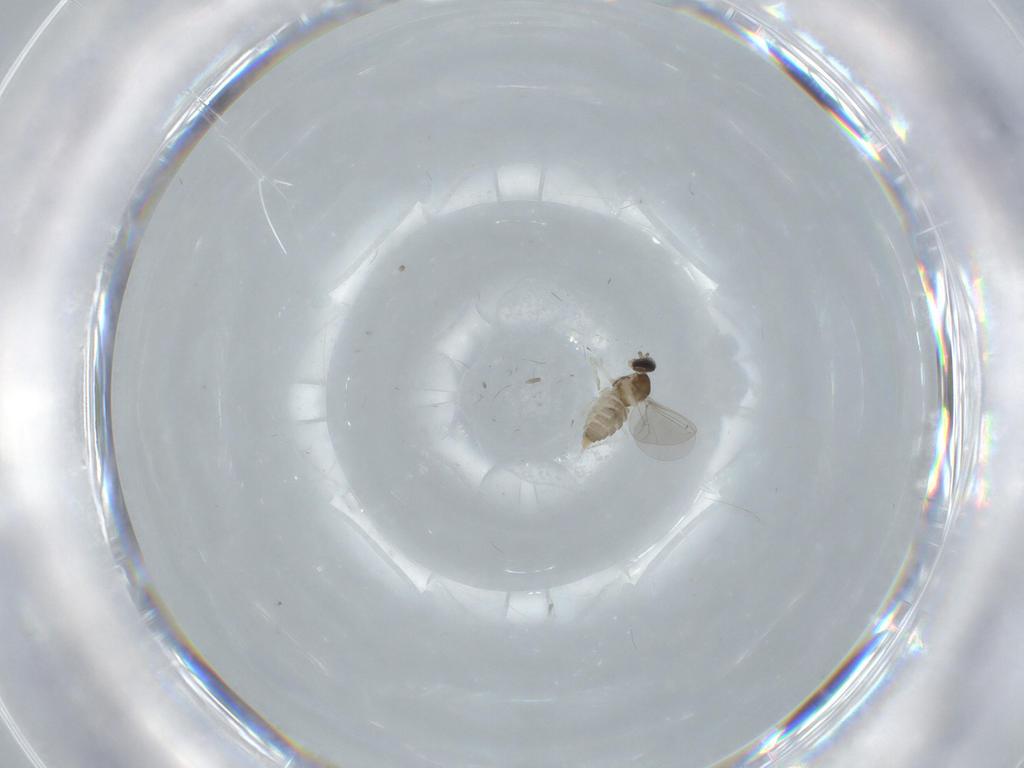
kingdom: Animalia
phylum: Arthropoda
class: Insecta
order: Diptera
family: Cecidomyiidae
